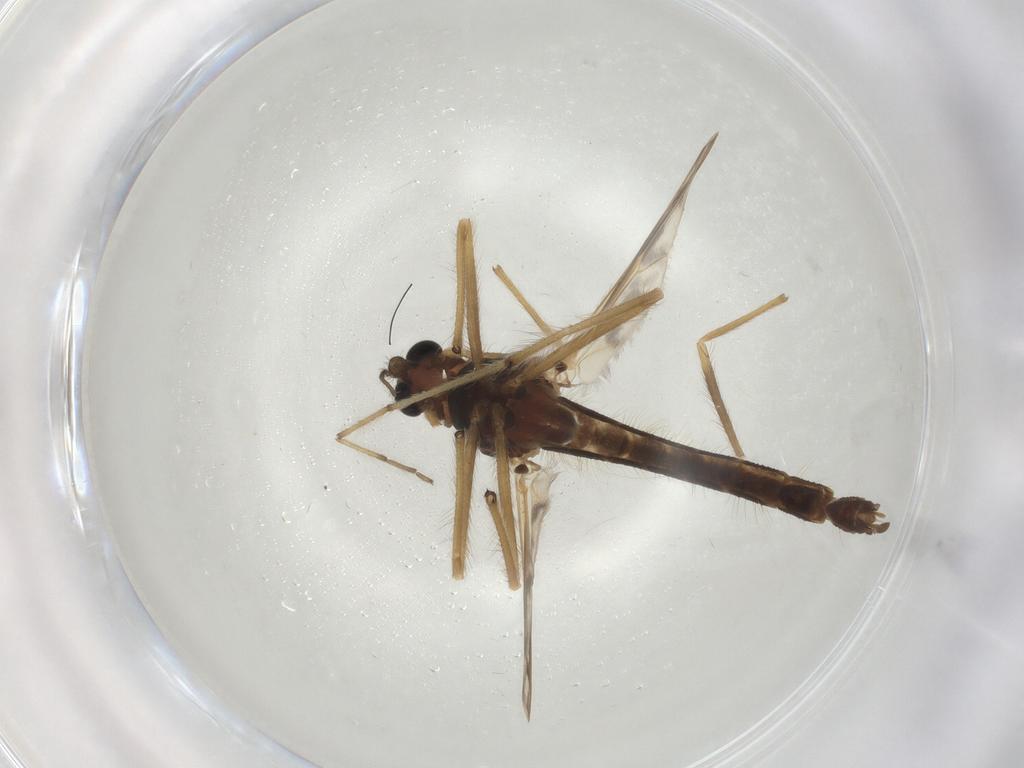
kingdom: Animalia
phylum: Arthropoda
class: Insecta
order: Diptera
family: Chironomidae
